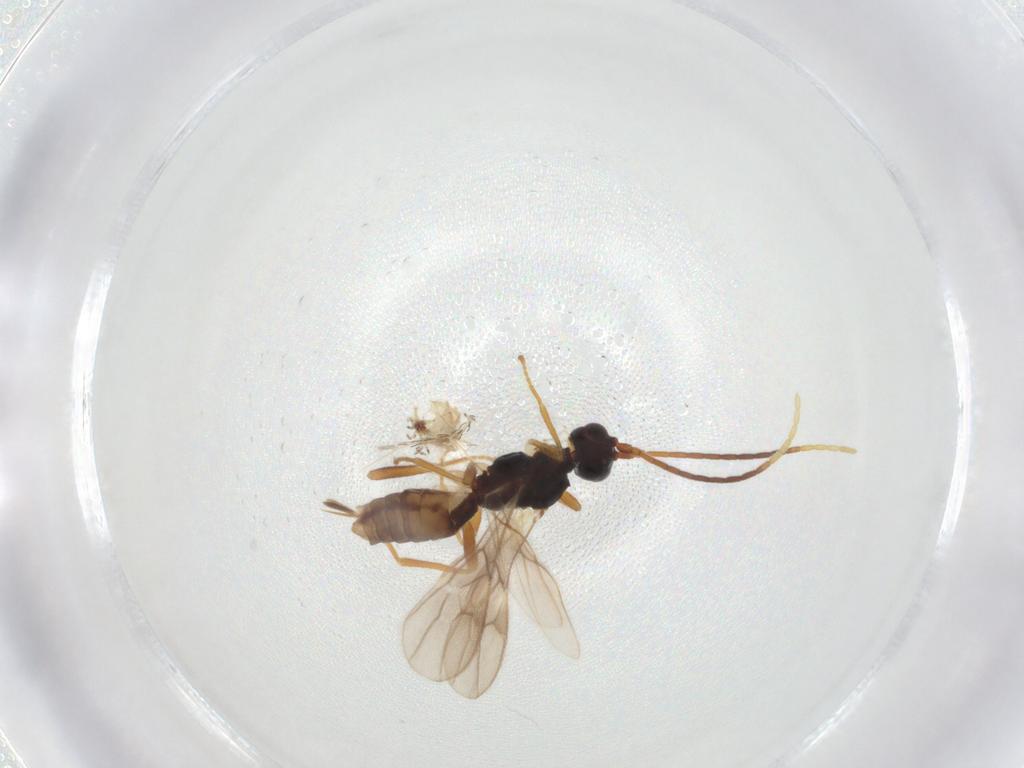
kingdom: Animalia
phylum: Arthropoda
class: Insecta
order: Hymenoptera
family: Braconidae
